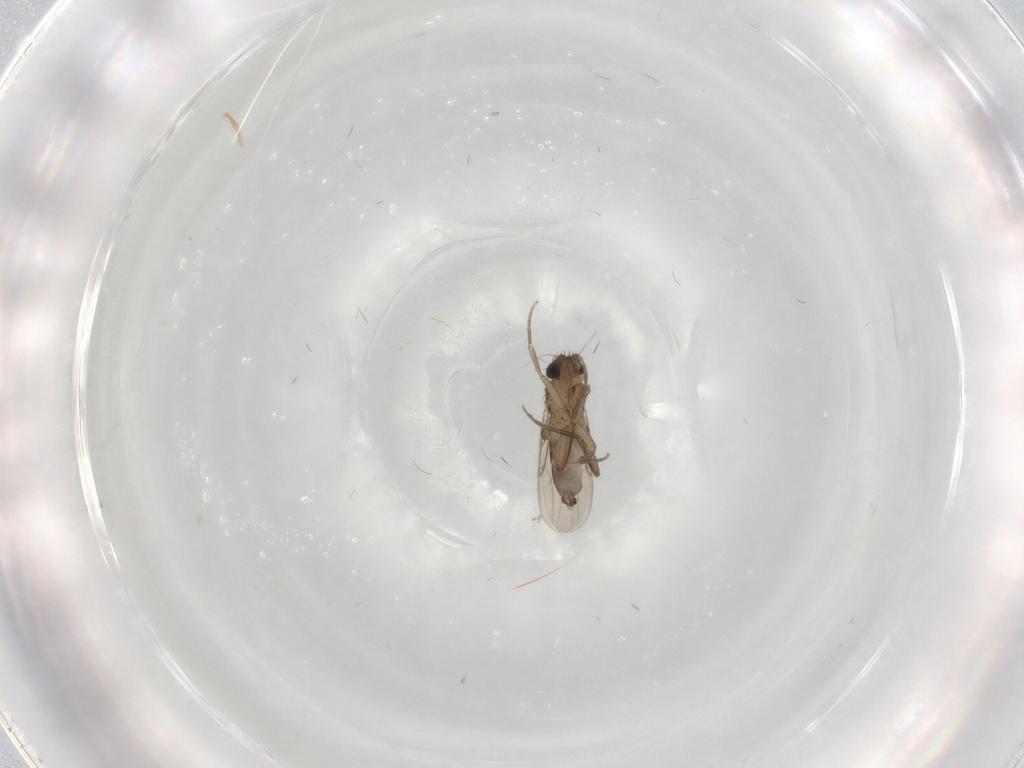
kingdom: Animalia
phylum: Arthropoda
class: Insecta
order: Diptera
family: Phoridae
